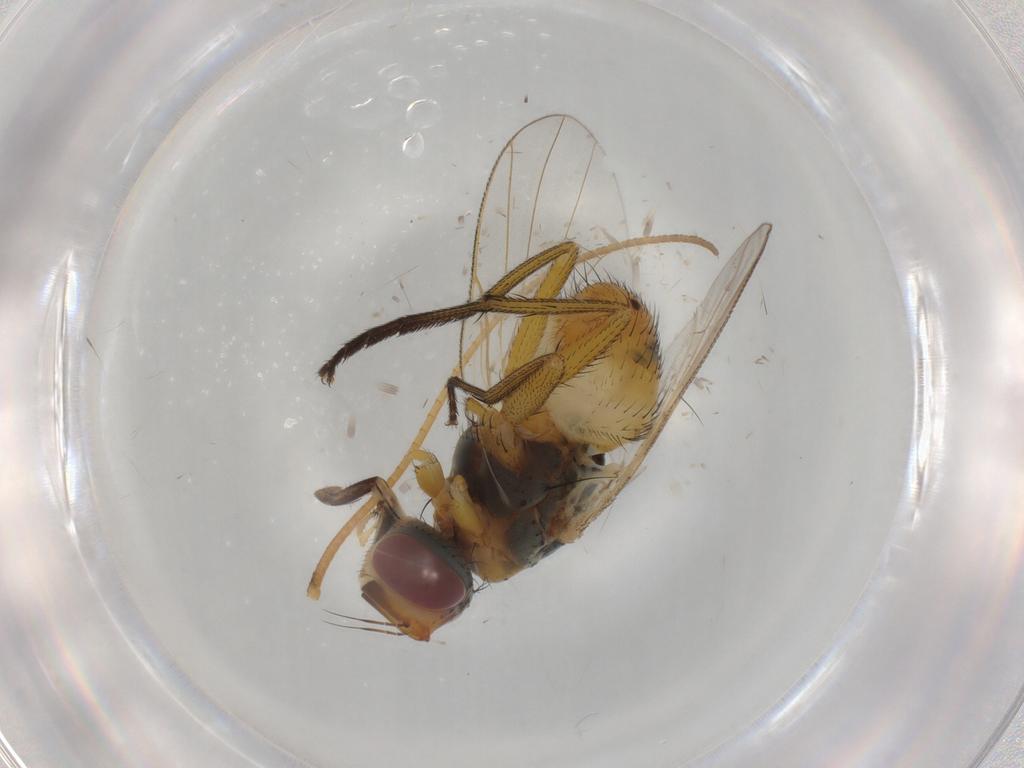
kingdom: Animalia
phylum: Arthropoda
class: Insecta
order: Diptera
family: Muscidae
